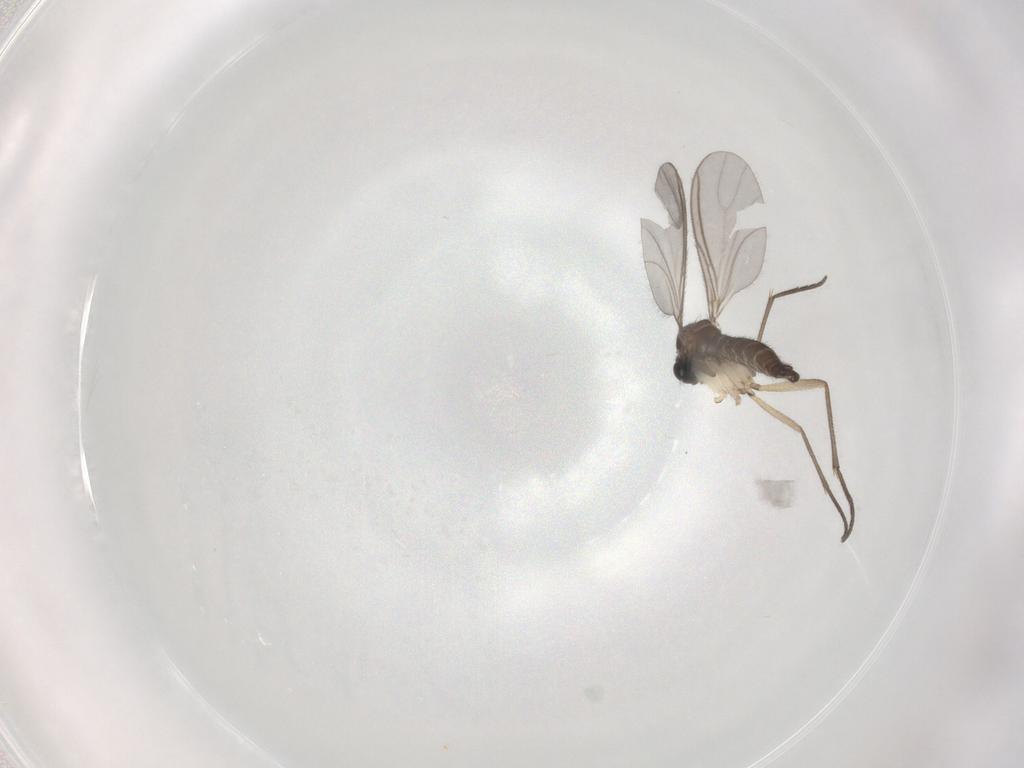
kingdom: Animalia
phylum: Arthropoda
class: Insecta
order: Diptera
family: Sciaridae
